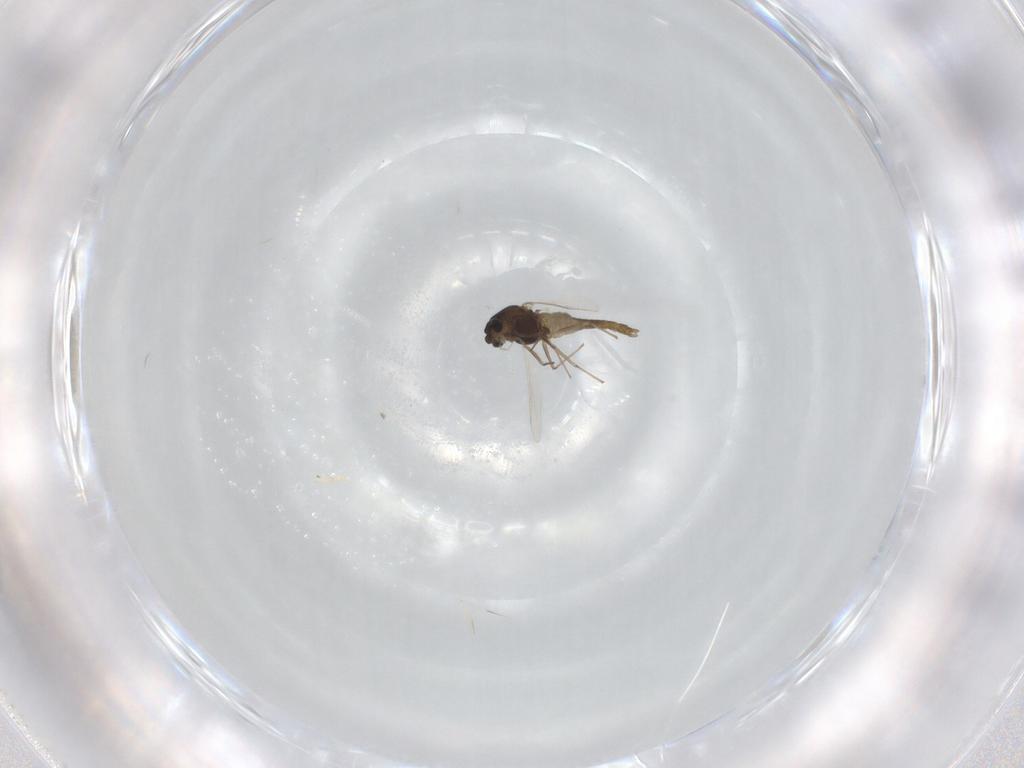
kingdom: Animalia
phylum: Arthropoda
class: Insecta
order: Diptera
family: Chironomidae
